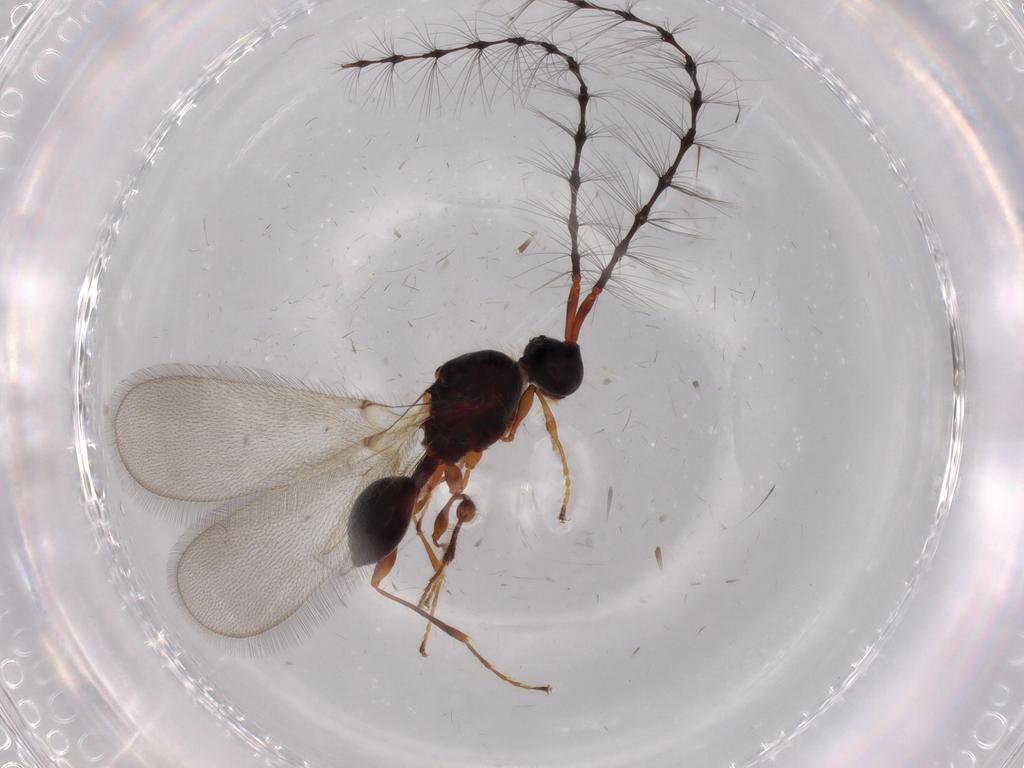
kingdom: Animalia
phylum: Arthropoda
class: Insecta
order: Hymenoptera
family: Diapriidae
